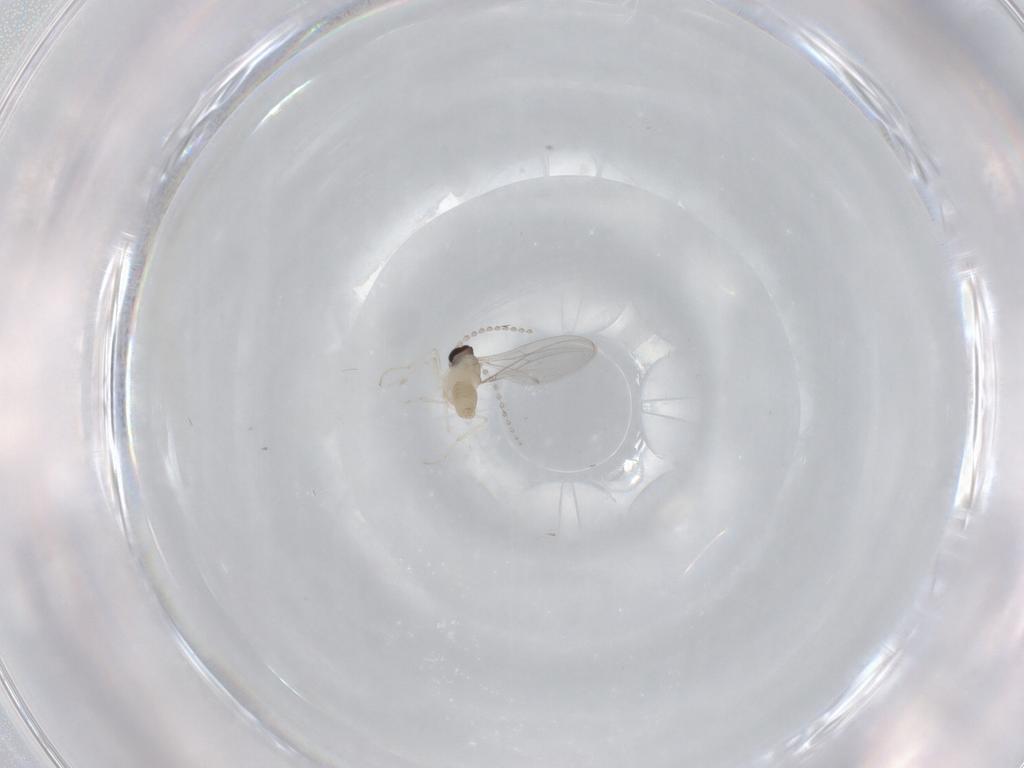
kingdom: Animalia
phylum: Arthropoda
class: Insecta
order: Diptera
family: Cecidomyiidae
